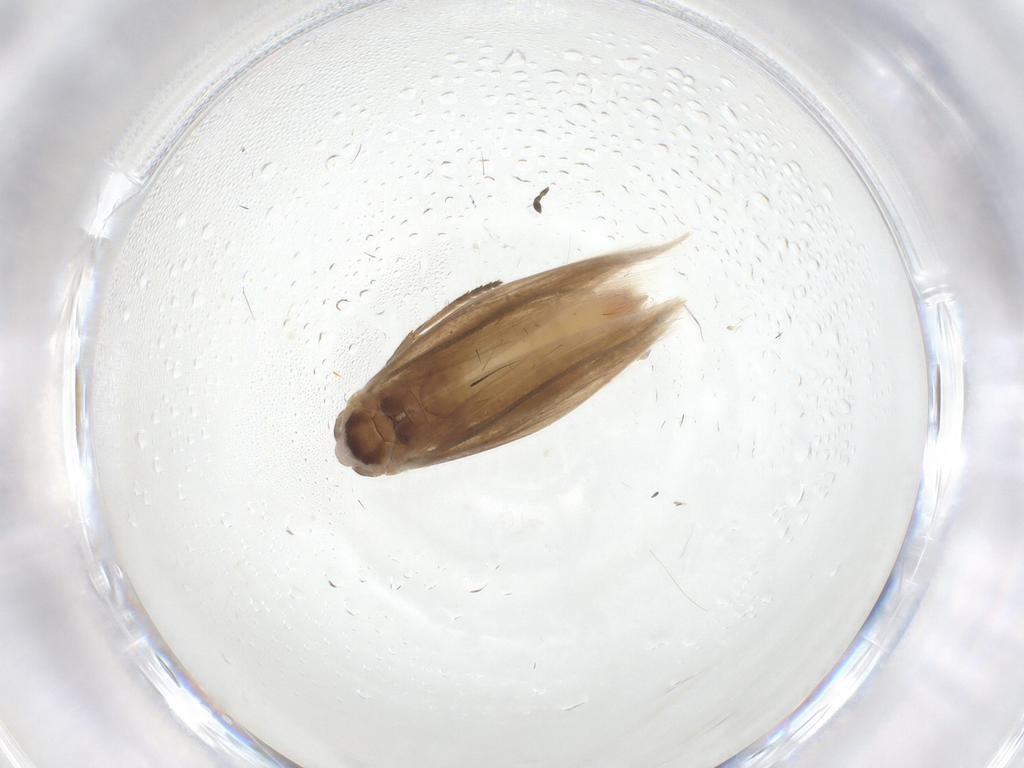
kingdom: Animalia
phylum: Arthropoda
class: Insecta
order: Lepidoptera
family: Bucculatricidae
